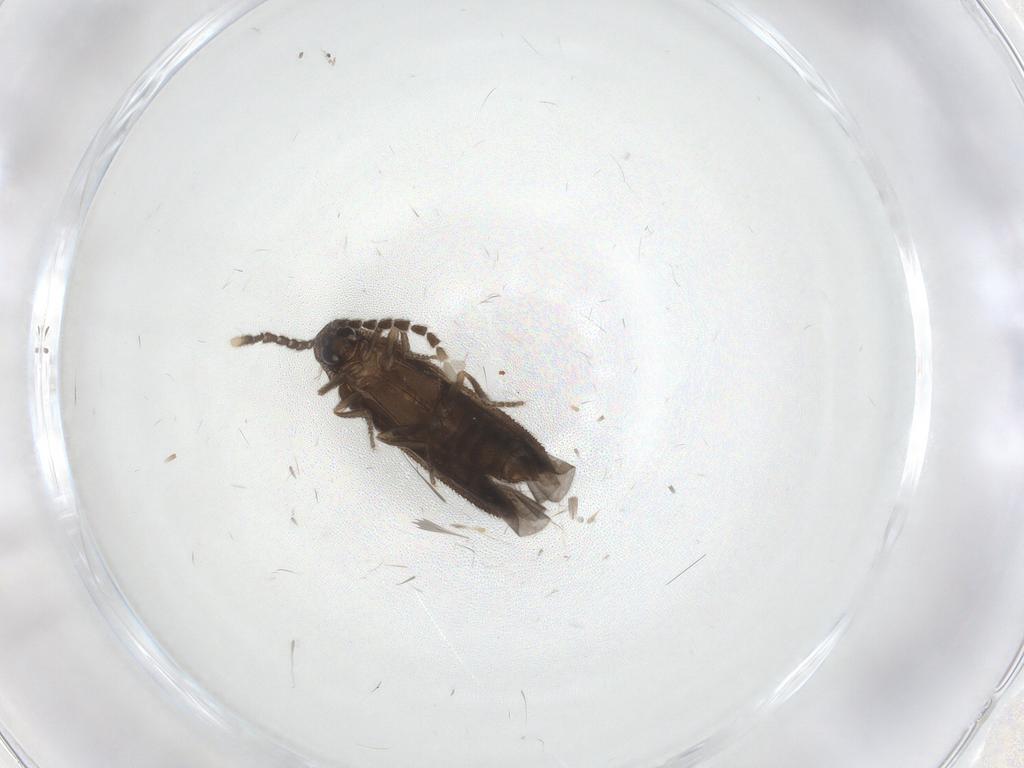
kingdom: Animalia
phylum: Arthropoda
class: Insecta
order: Coleoptera
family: Lycidae
